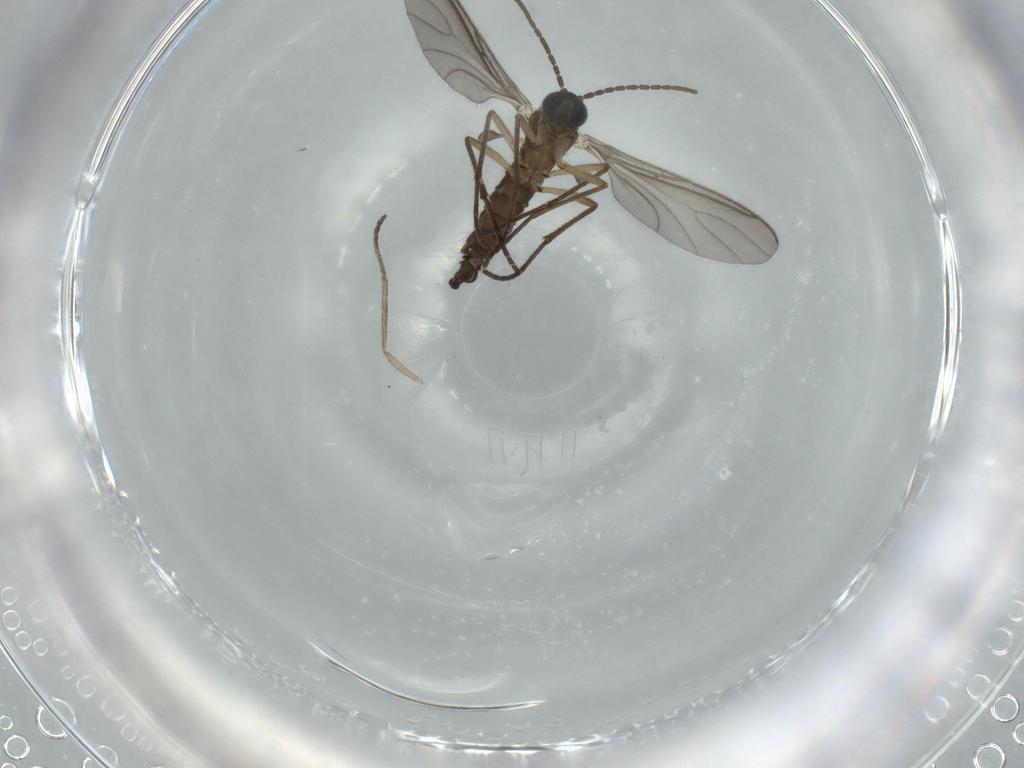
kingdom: Animalia
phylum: Arthropoda
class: Insecta
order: Diptera
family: Sciaridae
